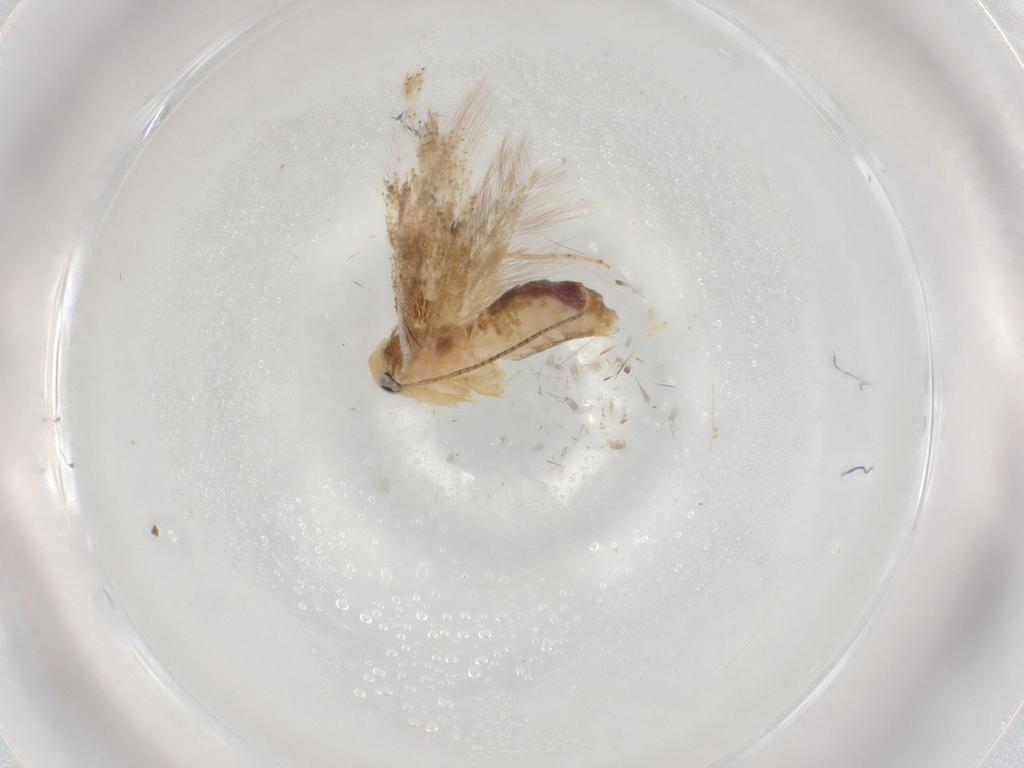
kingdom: Animalia
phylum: Arthropoda
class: Insecta
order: Lepidoptera
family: Nepticulidae
